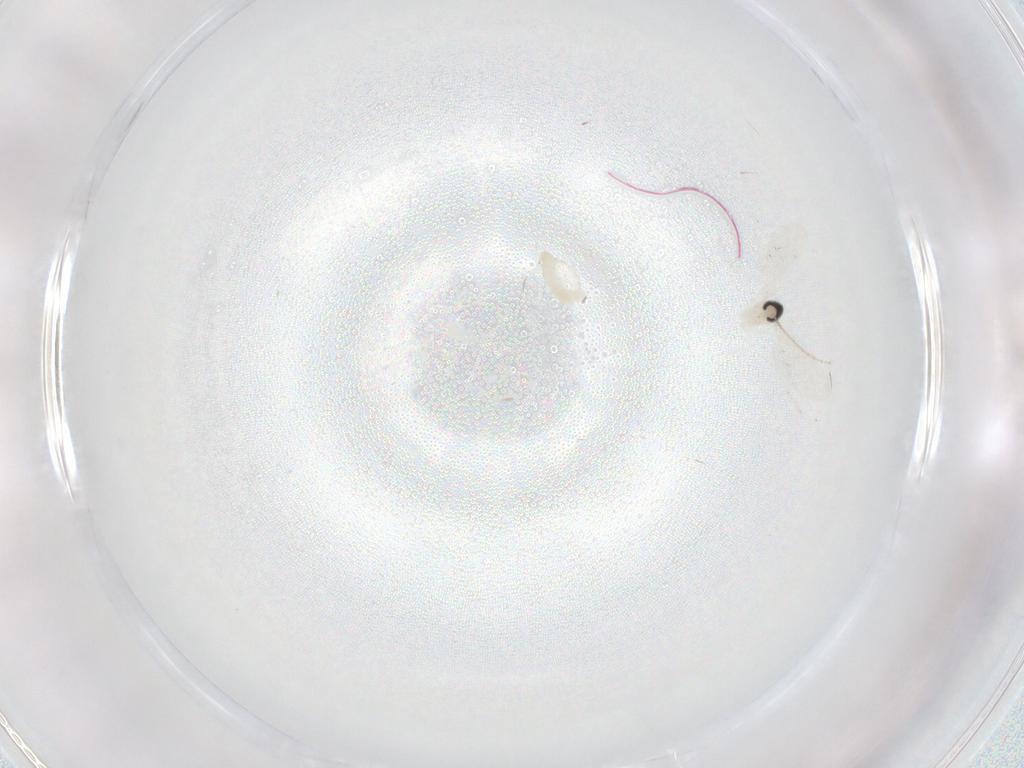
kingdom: Animalia
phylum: Arthropoda
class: Insecta
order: Diptera
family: Cecidomyiidae
